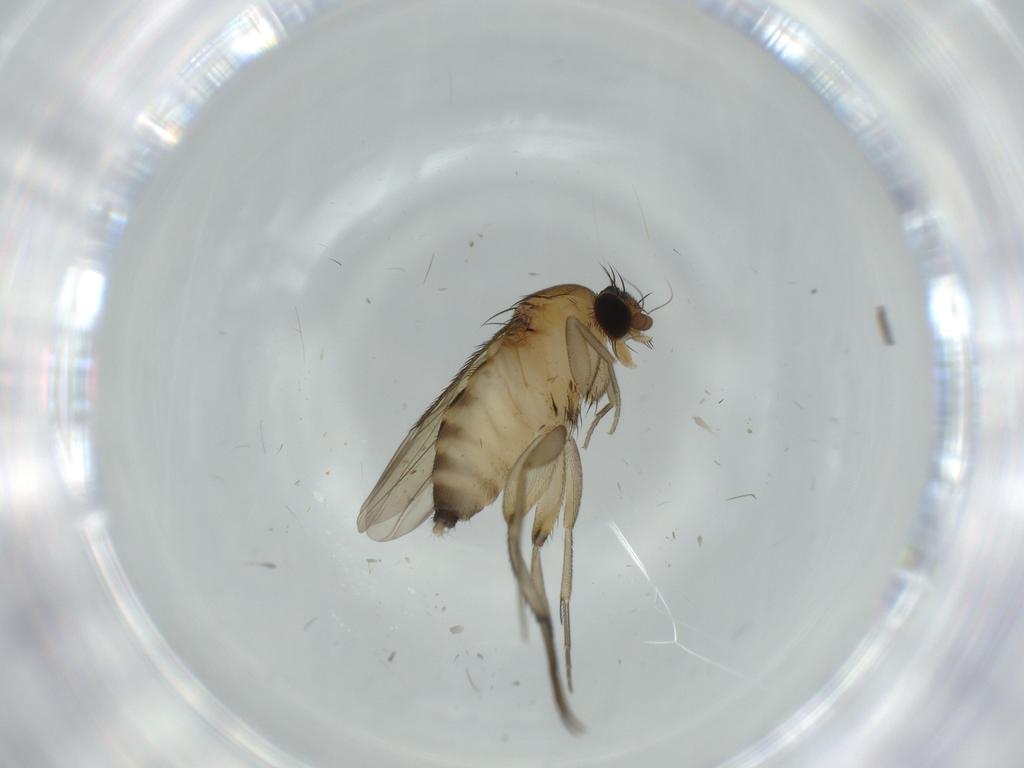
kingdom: Animalia
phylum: Arthropoda
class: Insecta
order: Diptera
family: Phoridae
